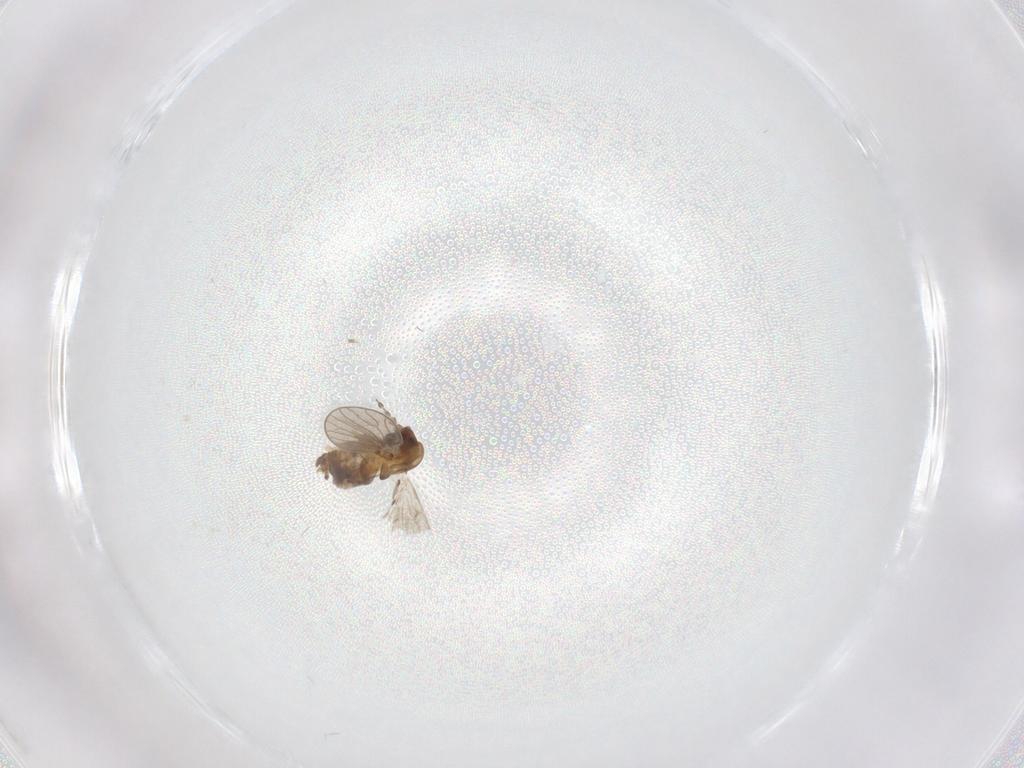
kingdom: Animalia
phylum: Arthropoda
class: Insecta
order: Diptera
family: Psychodidae
